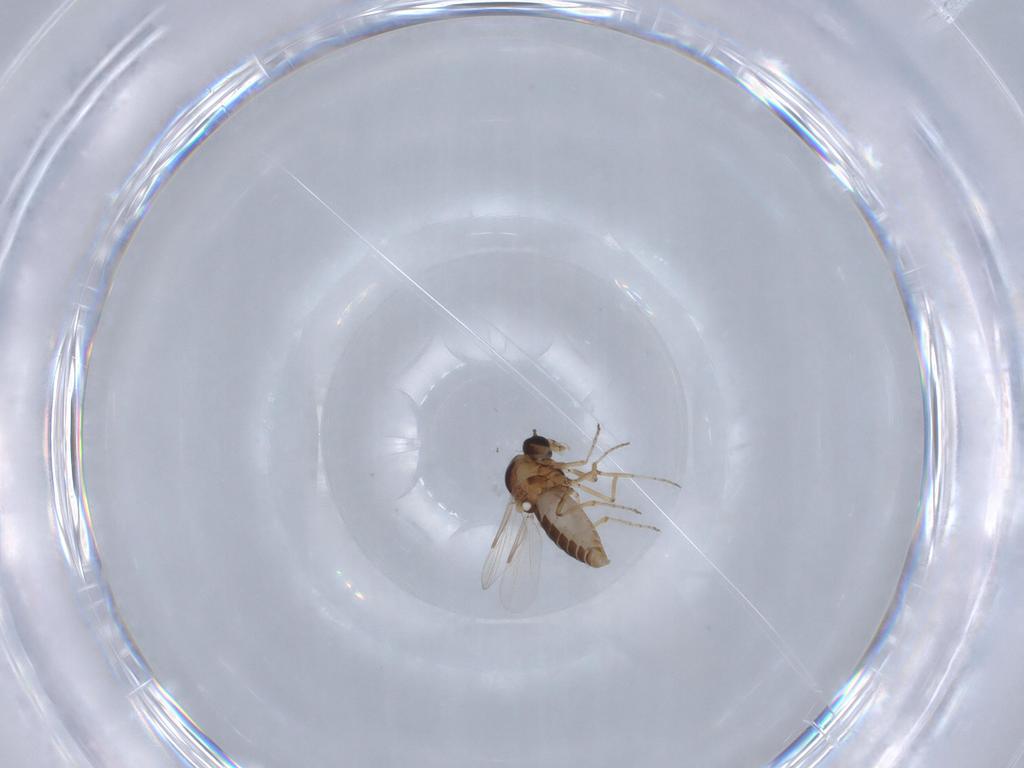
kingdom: Animalia
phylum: Arthropoda
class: Insecta
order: Diptera
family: Ceratopogonidae
